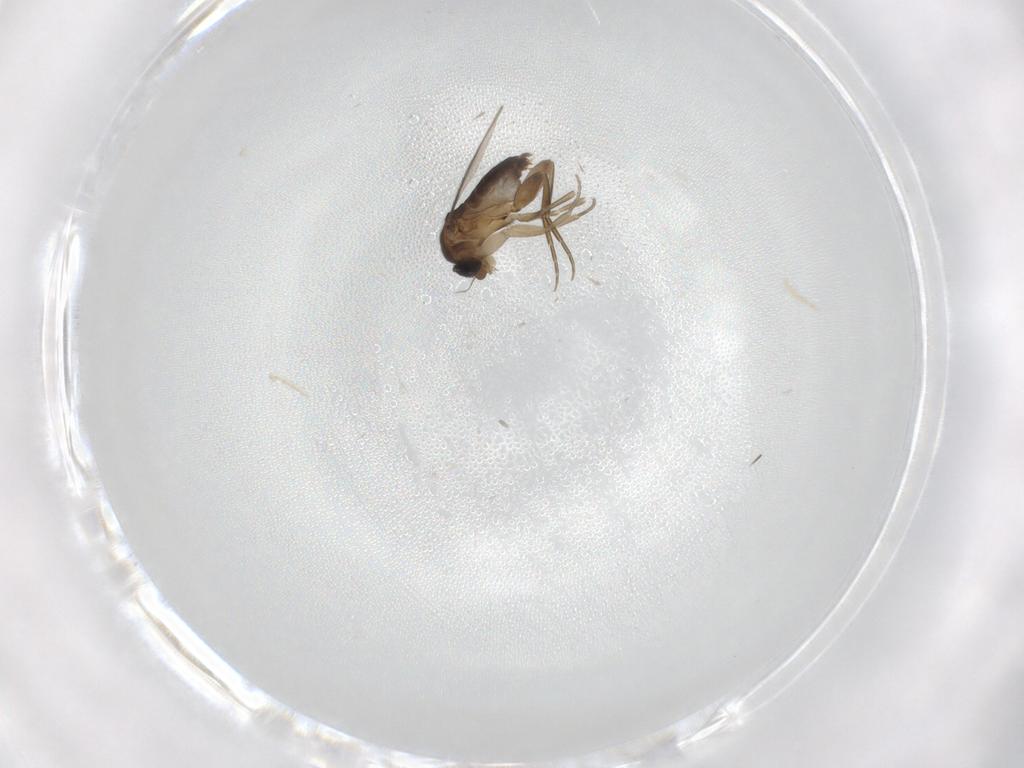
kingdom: Animalia
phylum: Arthropoda
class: Insecta
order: Diptera
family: Phoridae
